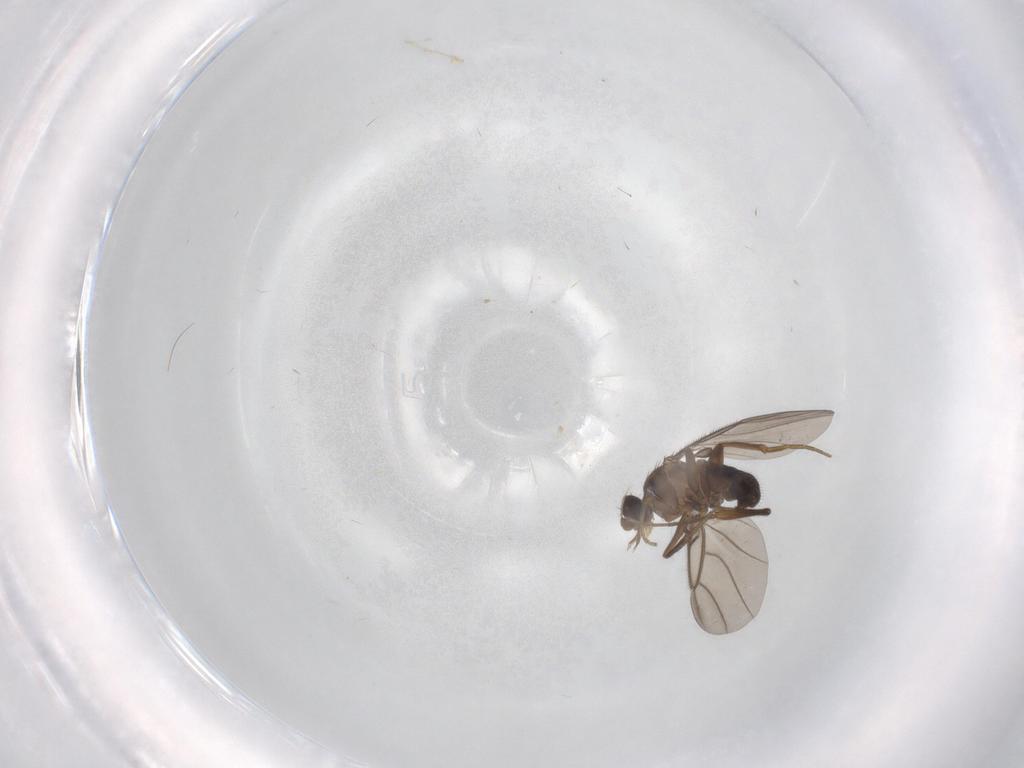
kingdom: Animalia
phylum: Arthropoda
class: Insecta
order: Diptera
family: Phoridae
